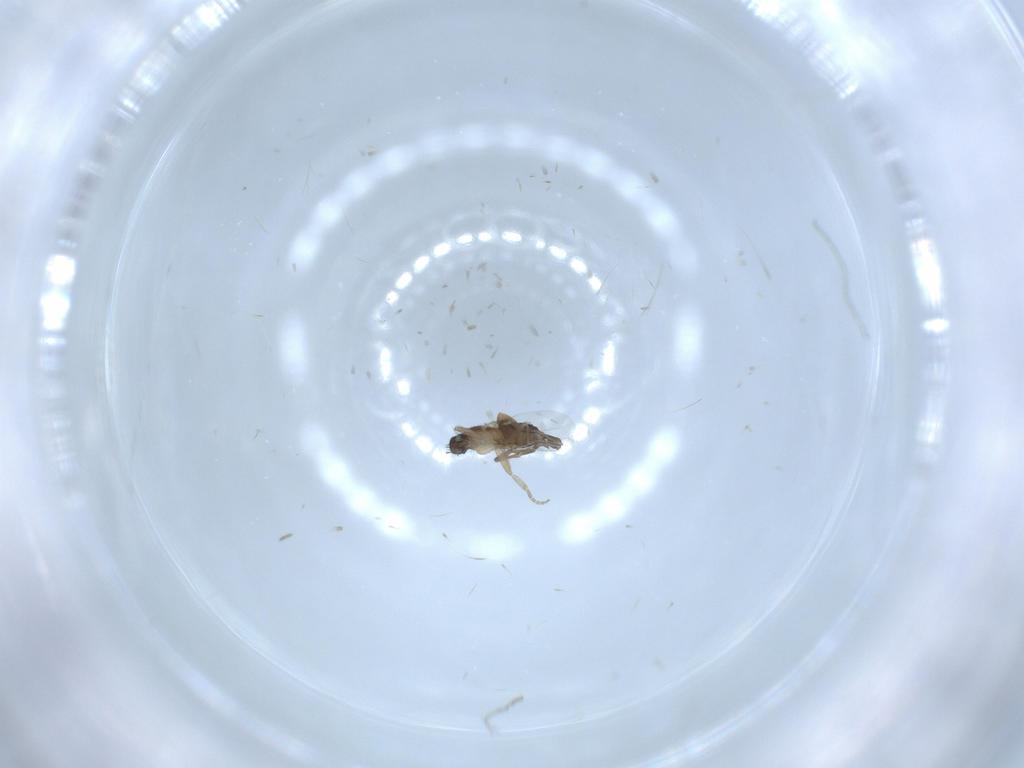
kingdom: Animalia
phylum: Arthropoda
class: Insecta
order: Diptera
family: Phoridae
